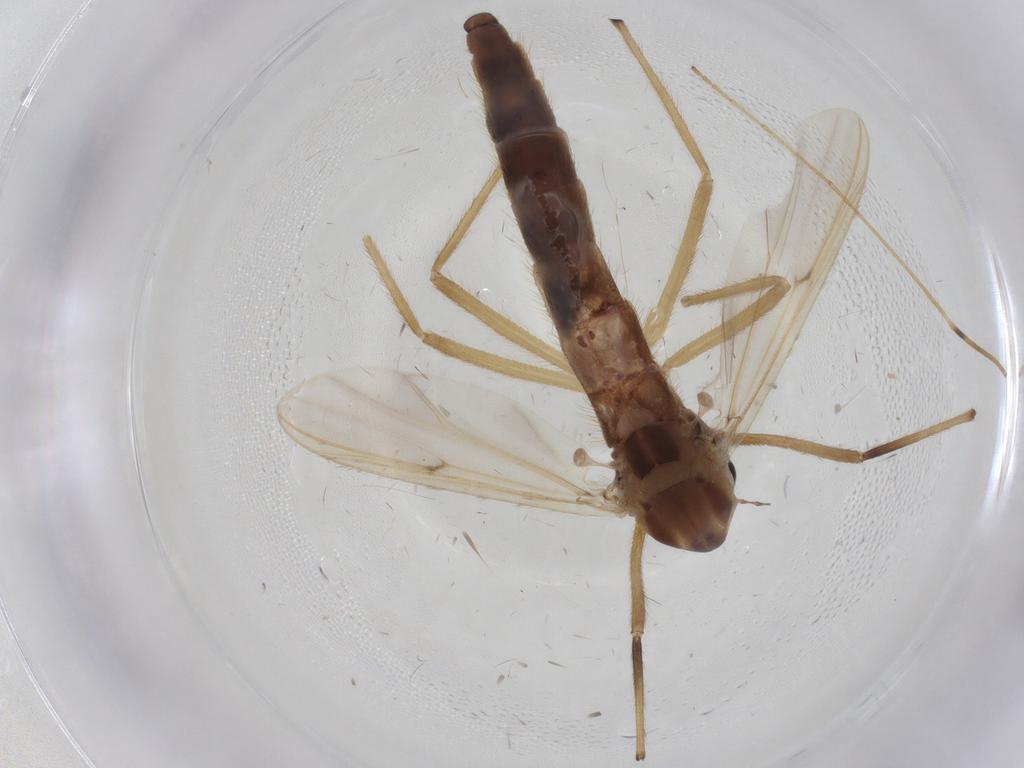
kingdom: Animalia
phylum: Arthropoda
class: Insecta
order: Diptera
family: Limoniidae
